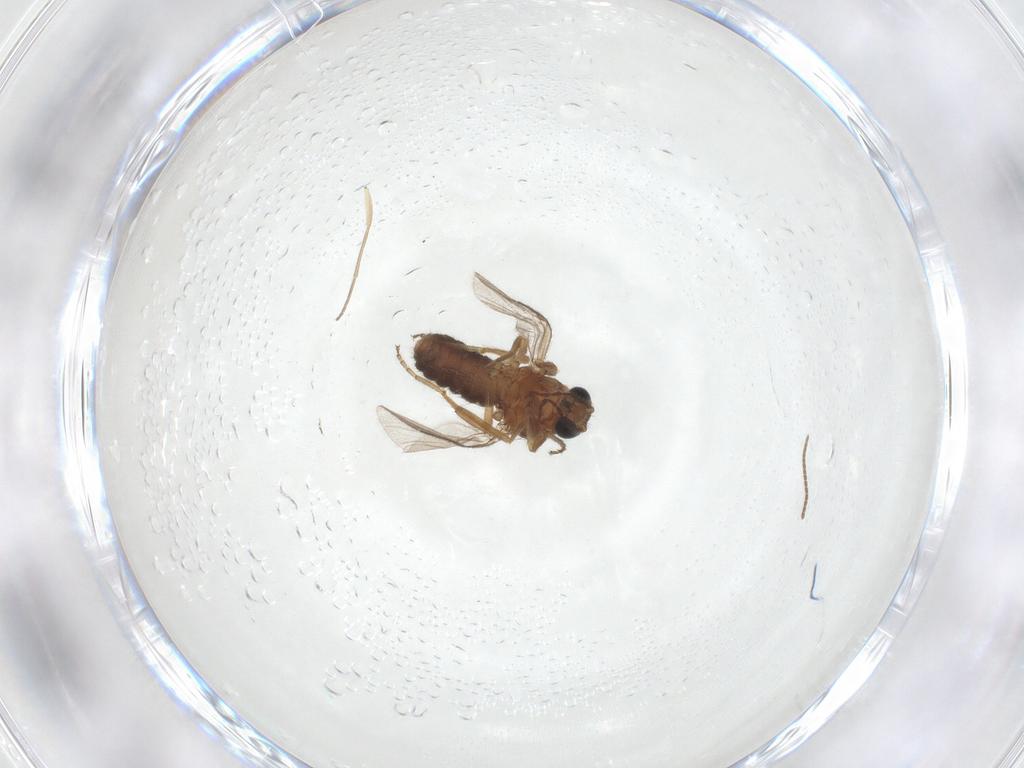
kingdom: Animalia
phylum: Arthropoda
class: Insecta
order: Diptera
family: Ceratopogonidae
